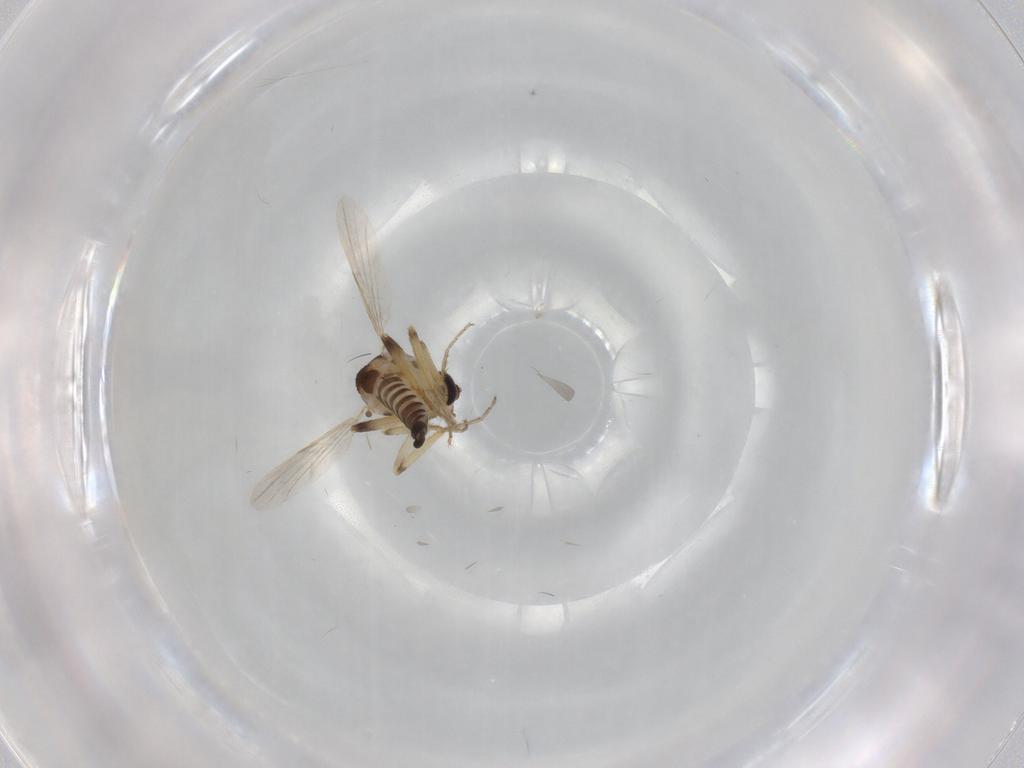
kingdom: Animalia
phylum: Arthropoda
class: Insecta
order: Diptera
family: Ceratopogonidae
